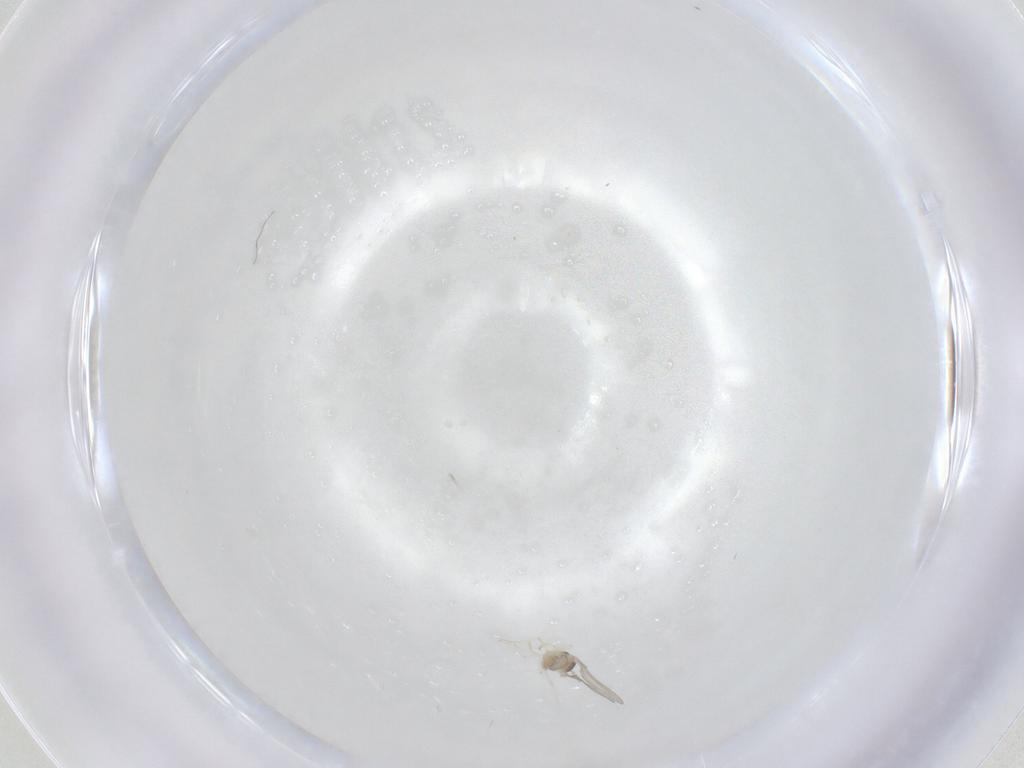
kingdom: Animalia
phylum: Arthropoda
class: Insecta
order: Diptera
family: Cecidomyiidae
